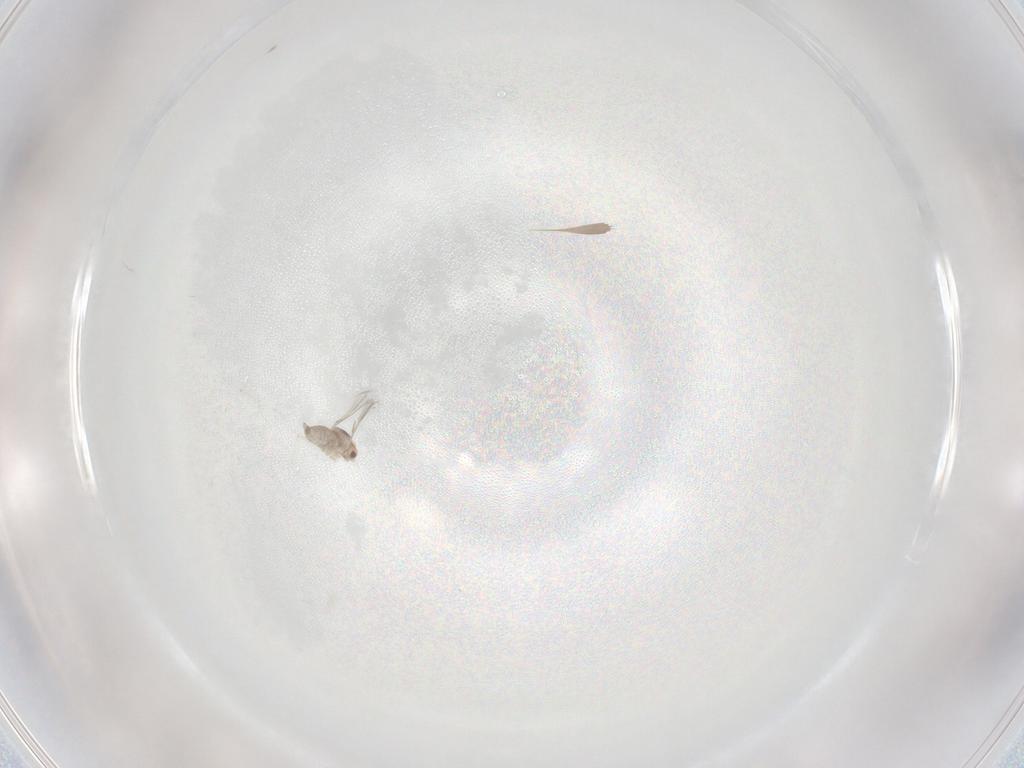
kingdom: Animalia
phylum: Arthropoda
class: Insecta
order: Diptera
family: Cecidomyiidae
